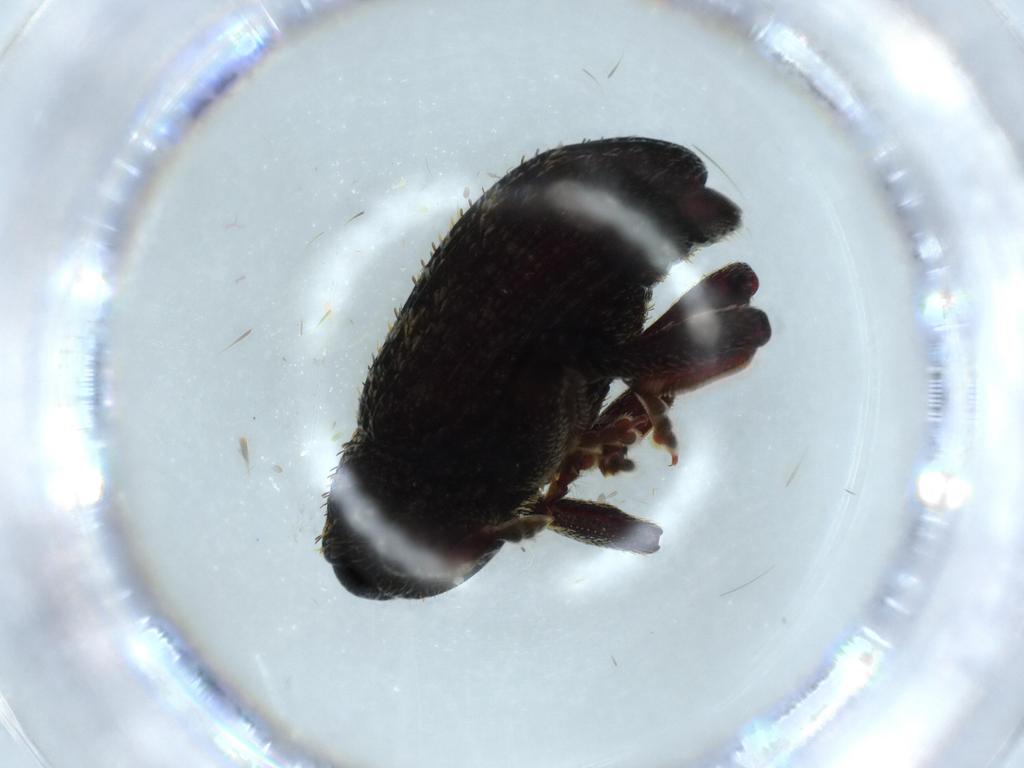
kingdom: Animalia
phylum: Arthropoda
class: Insecta
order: Coleoptera
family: Curculionidae
